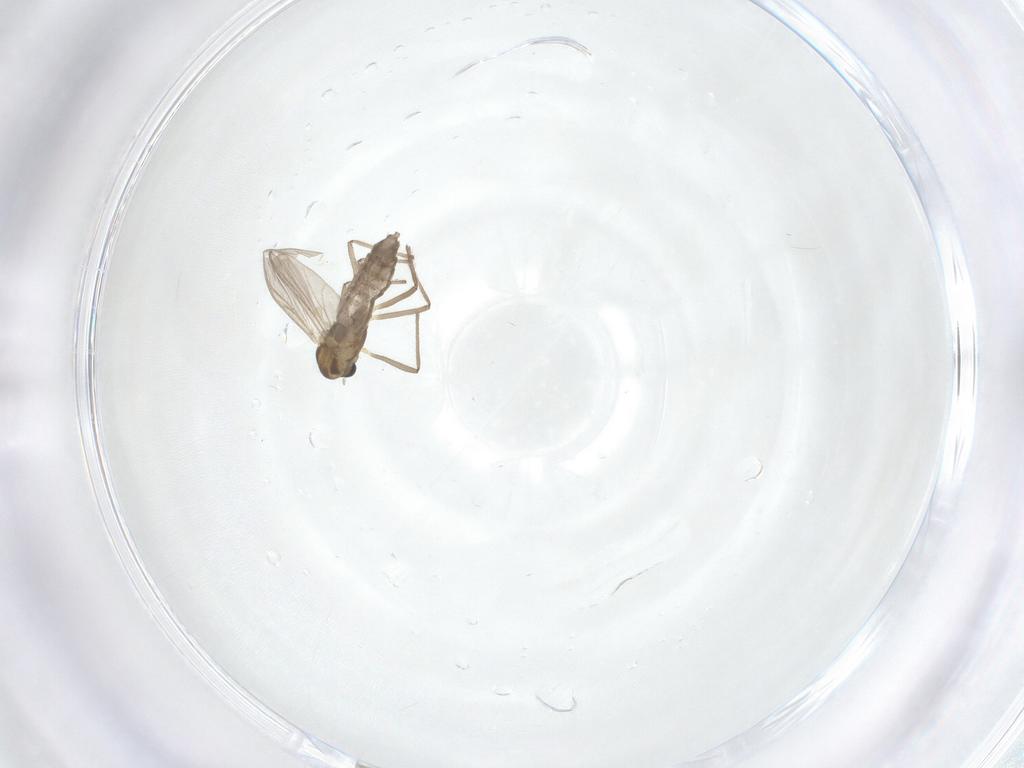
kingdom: Animalia
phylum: Arthropoda
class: Insecta
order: Diptera
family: Chironomidae
